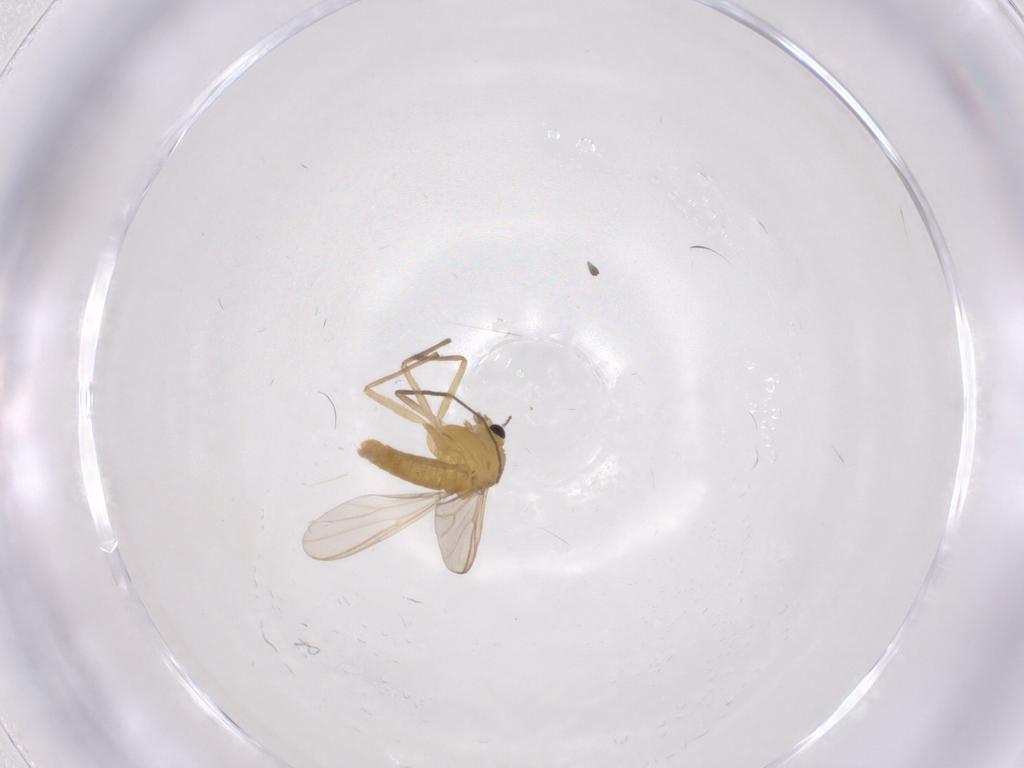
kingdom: Animalia
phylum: Arthropoda
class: Insecta
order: Diptera
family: Chironomidae
